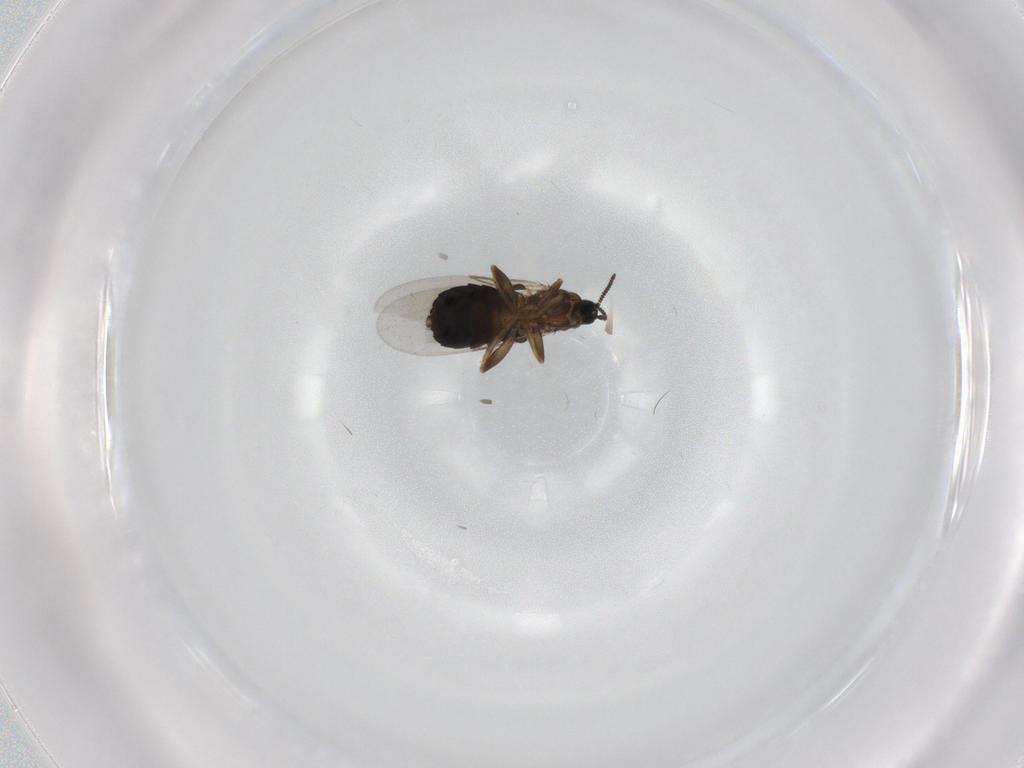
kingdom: Animalia
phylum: Arthropoda
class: Insecta
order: Diptera
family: Scatopsidae
